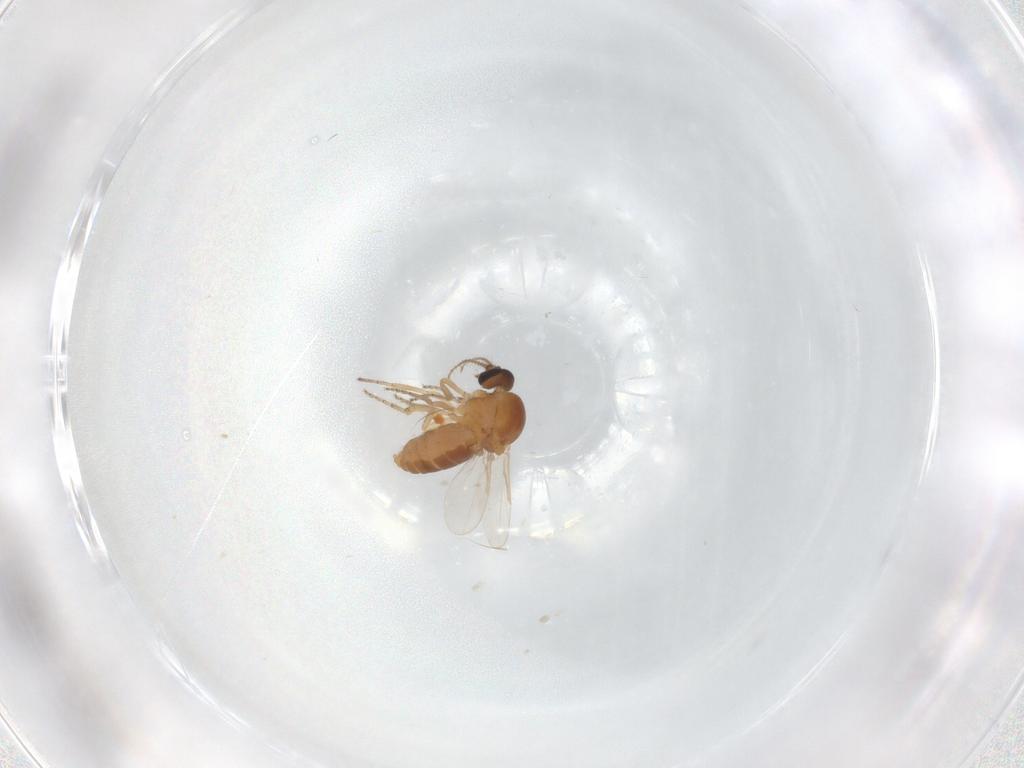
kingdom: Animalia
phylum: Arthropoda
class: Insecta
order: Diptera
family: Ceratopogonidae
